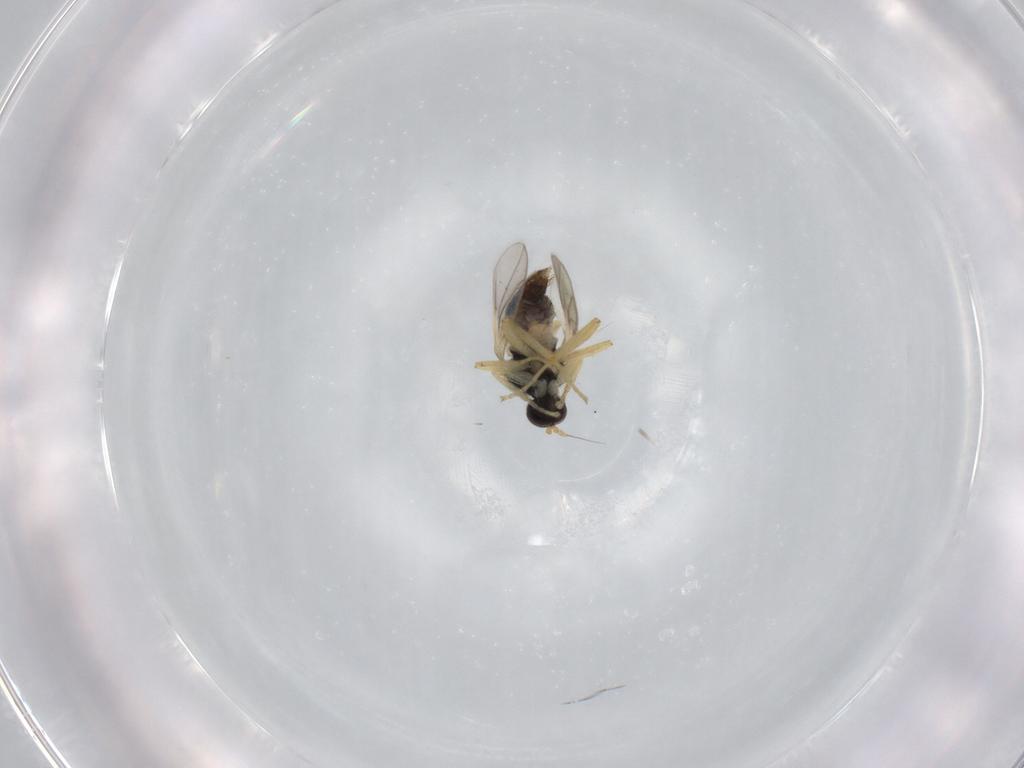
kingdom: Animalia
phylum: Arthropoda
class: Insecta
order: Diptera
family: Hybotidae
